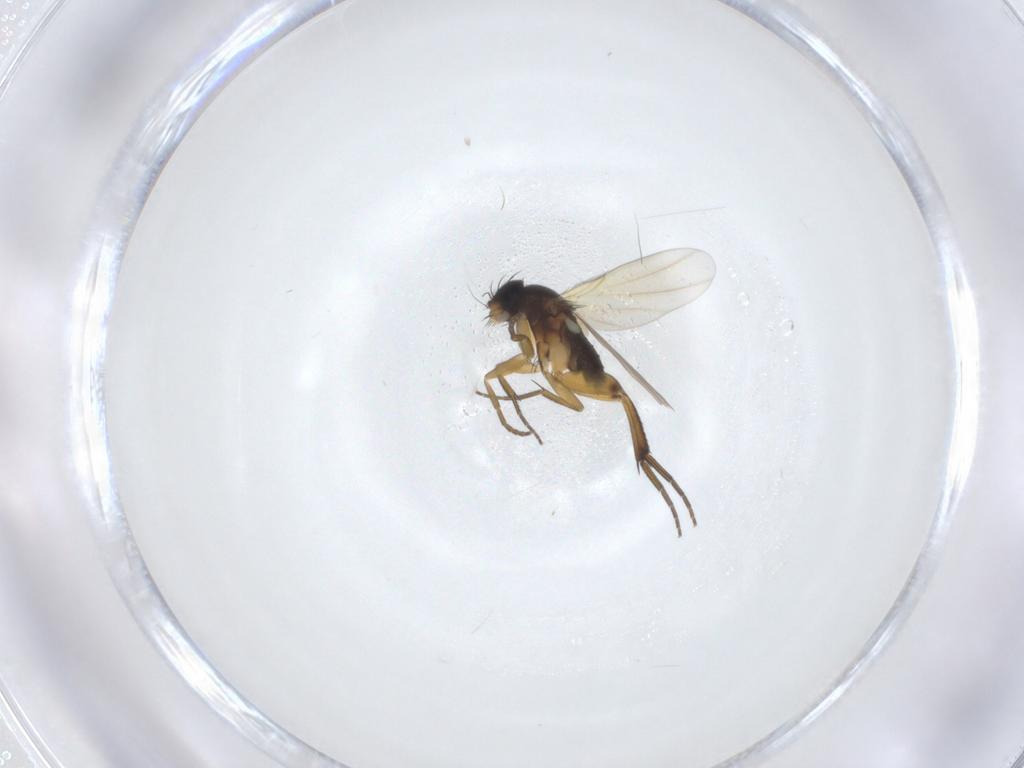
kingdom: Animalia
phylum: Arthropoda
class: Insecta
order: Diptera
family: Phoridae
